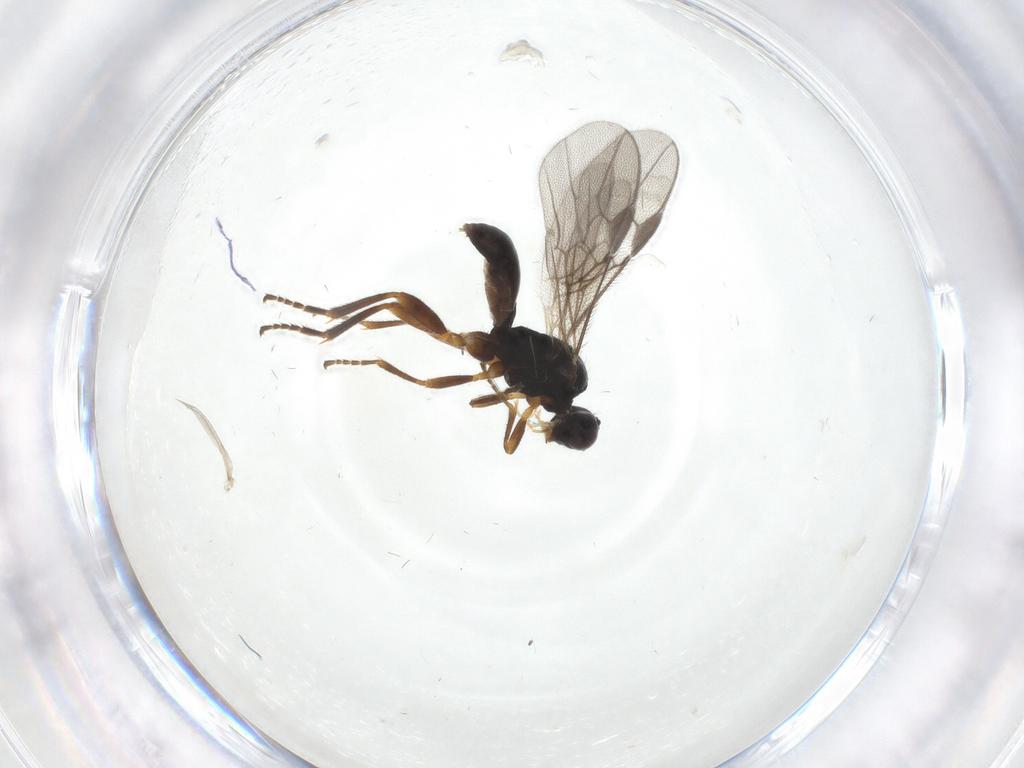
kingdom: Animalia
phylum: Arthropoda
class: Insecta
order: Hymenoptera
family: Braconidae
